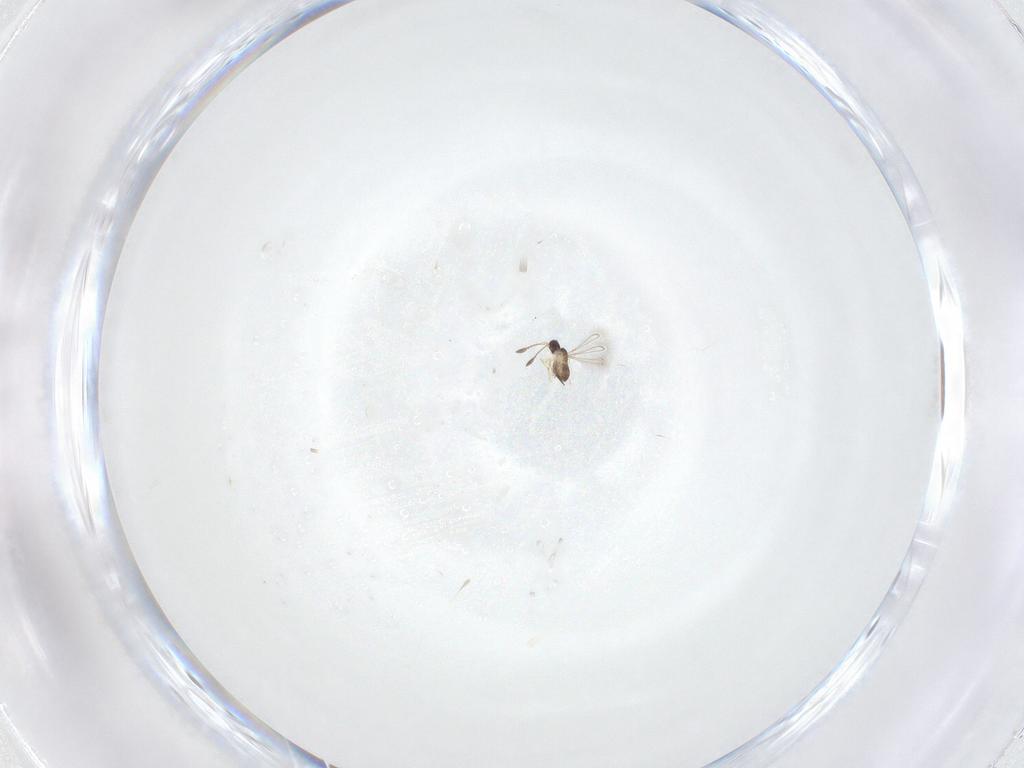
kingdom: Animalia
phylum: Arthropoda
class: Insecta
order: Hymenoptera
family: Mymaridae
